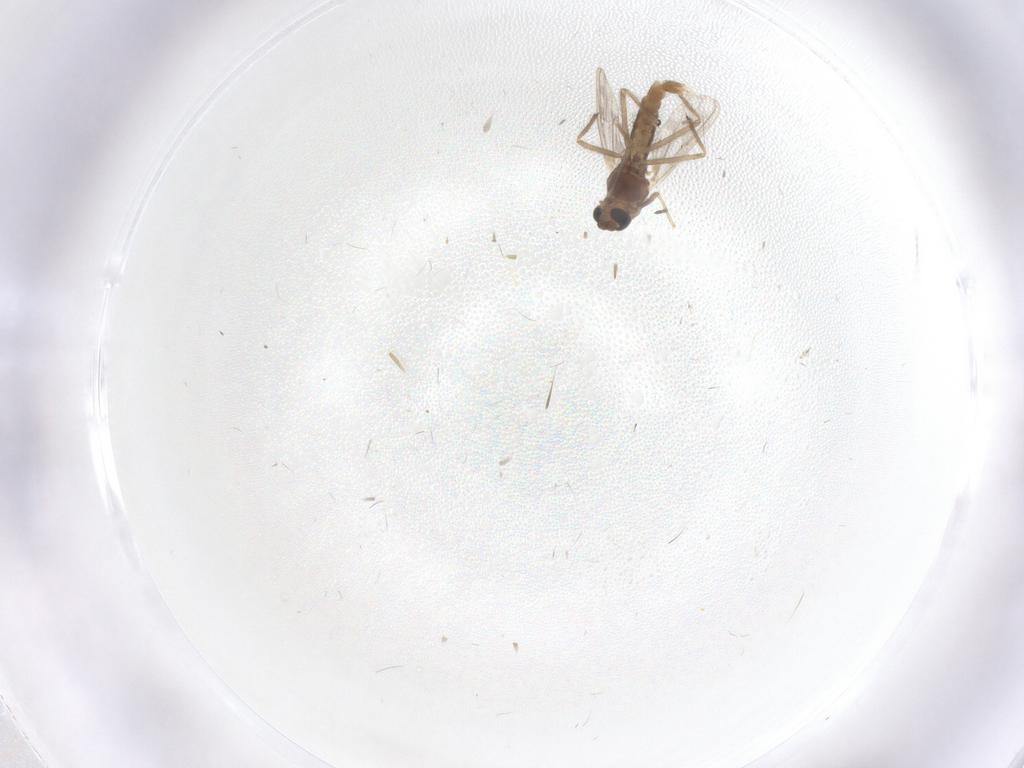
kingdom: Animalia
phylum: Arthropoda
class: Insecta
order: Diptera
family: Chironomidae
